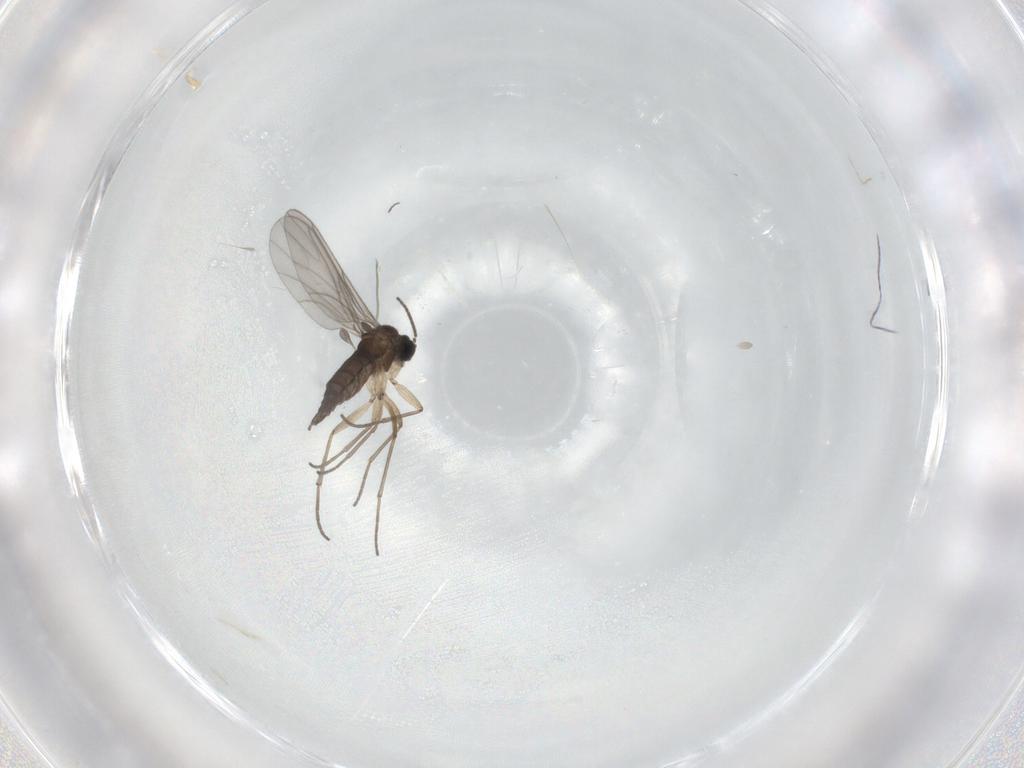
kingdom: Animalia
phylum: Arthropoda
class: Insecta
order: Diptera
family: Sciaridae
